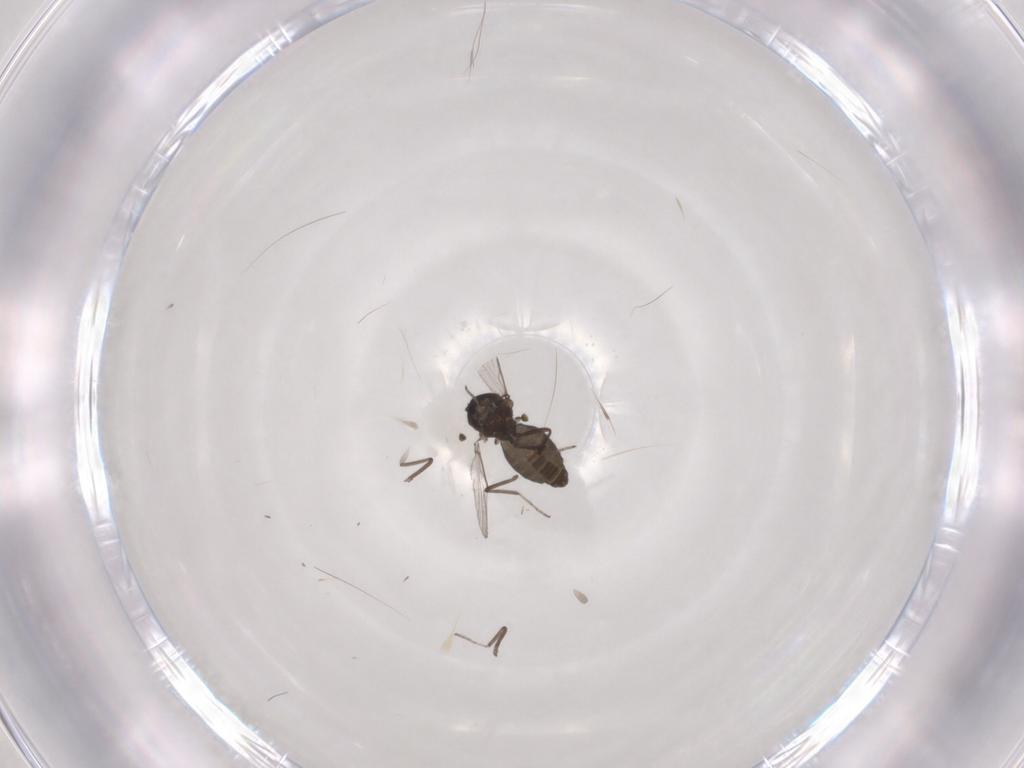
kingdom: Animalia
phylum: Arthropoda
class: Insecta
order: Diptera
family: Ceratopogonidae
